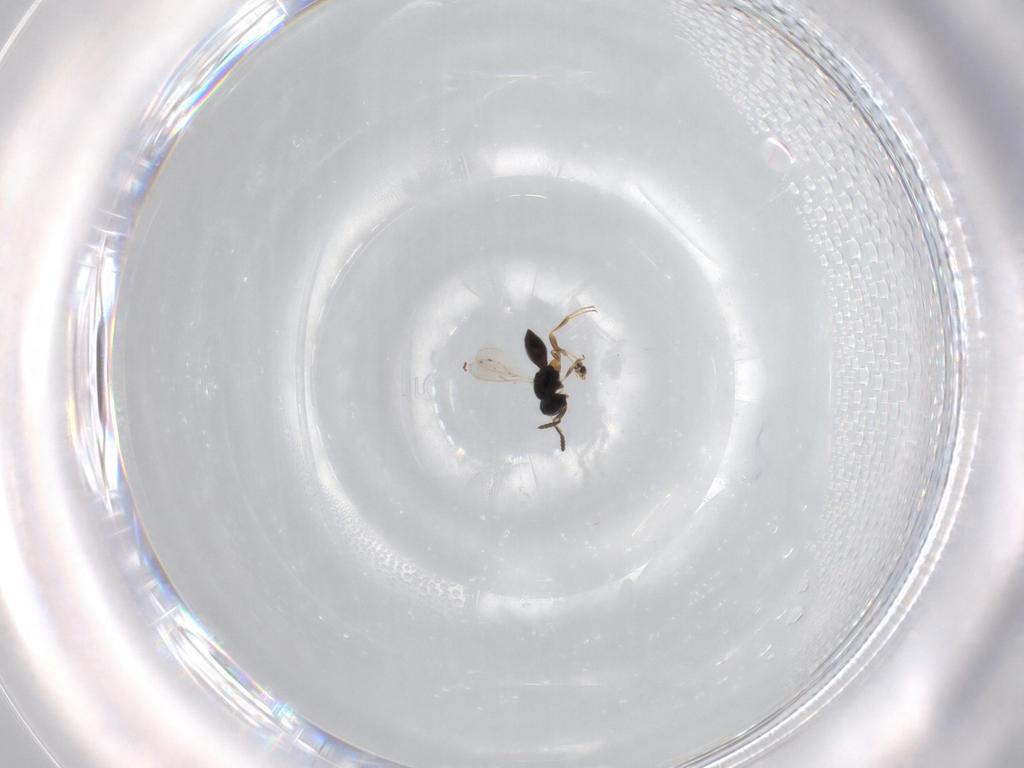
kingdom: Animalia
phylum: Arthropoda
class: Insecta
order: Hymenoptera
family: Scelionidae
